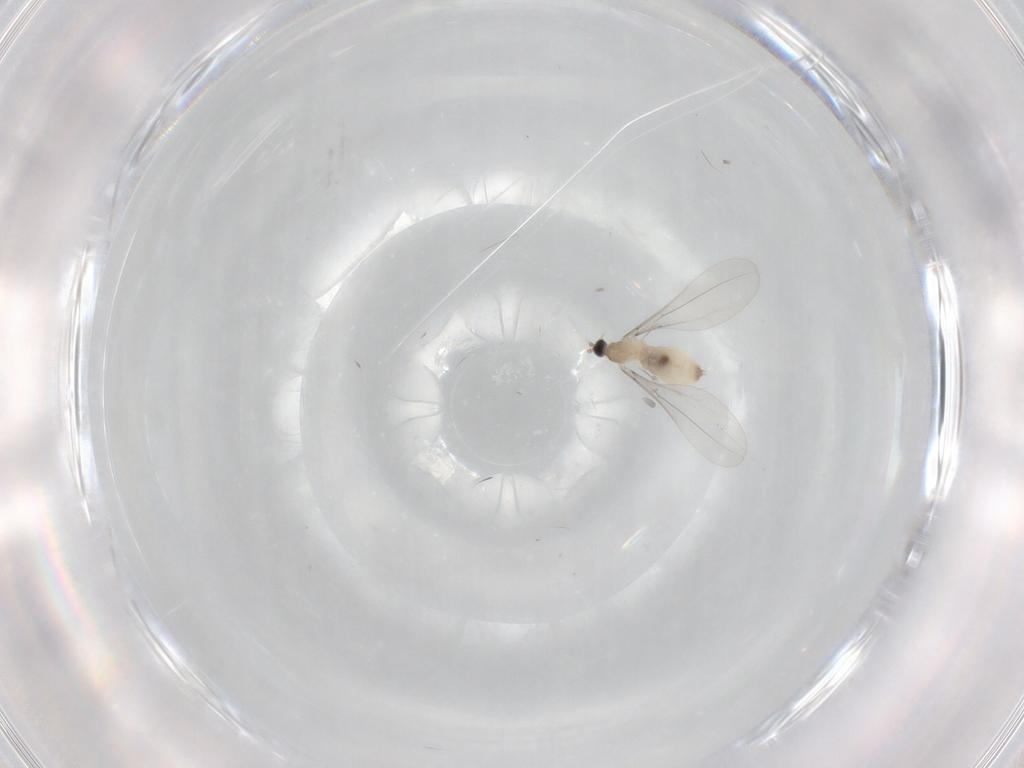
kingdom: Animalia
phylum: Arthropoda
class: Insecta
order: Diptera
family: Cecidomyiidae
